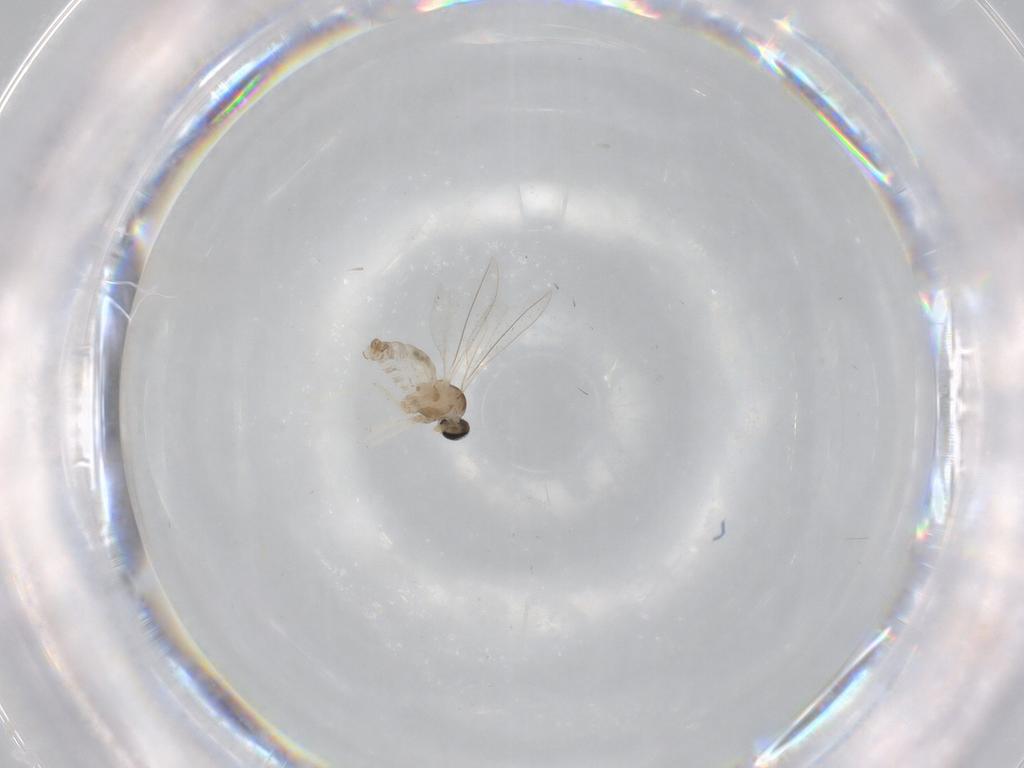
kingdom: Animalia
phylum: Arthropoda
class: Insecta
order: Diptera
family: Cecidomyiidae
